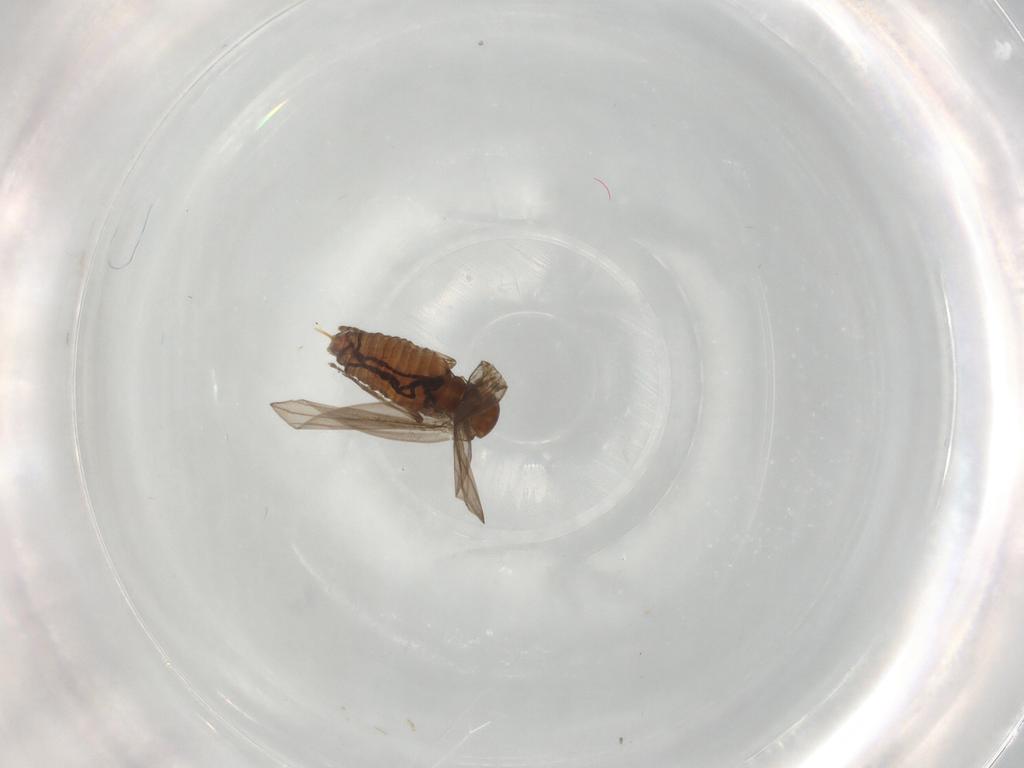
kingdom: Animalia
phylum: Arthropoda
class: Insecta
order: Diptera
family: Psychodidae
